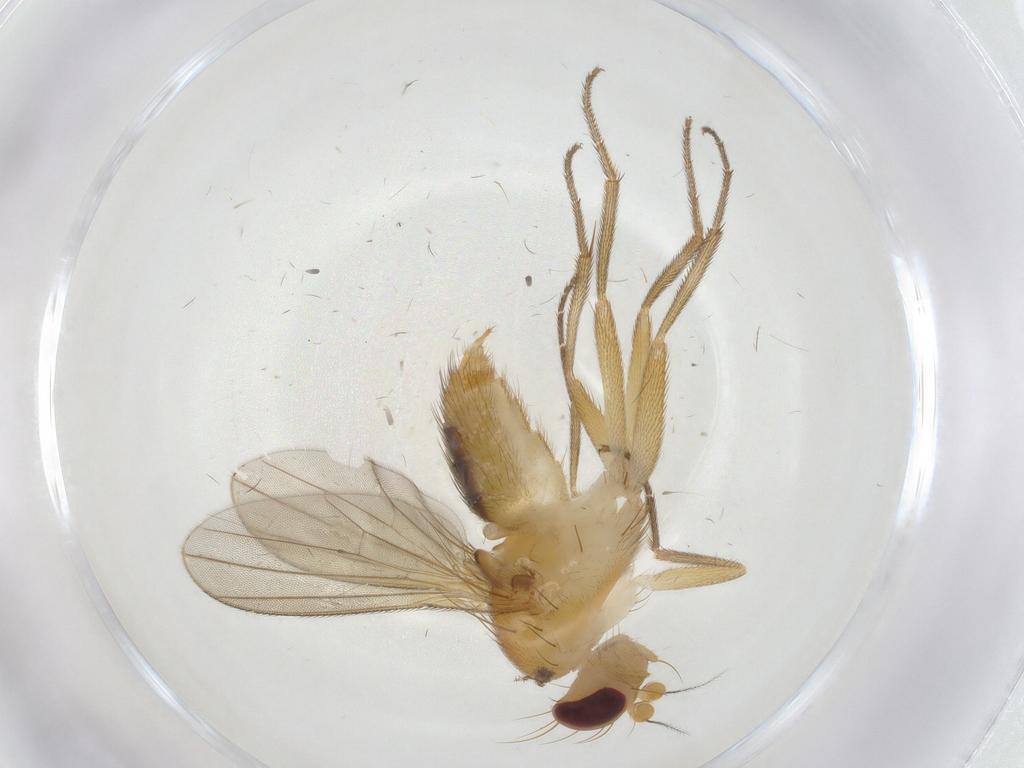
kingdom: Animalia
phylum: Arthropoda
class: Insecta
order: Diptera
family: Clusiidae
